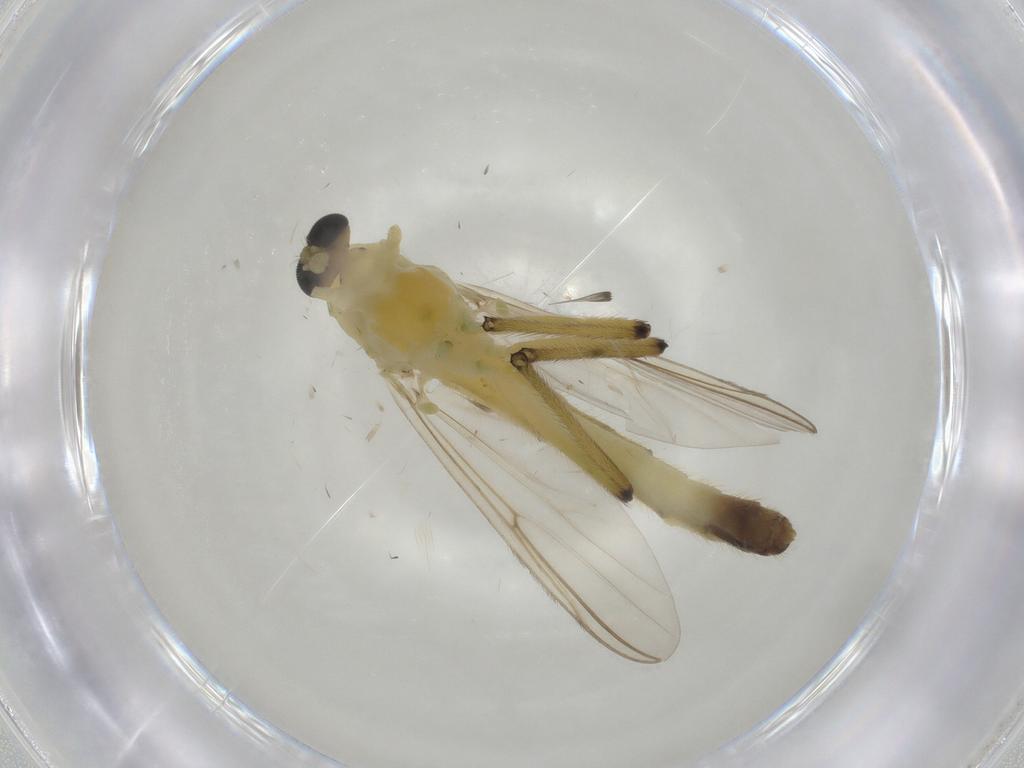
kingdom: Animalia
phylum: Arthropoda
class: Insecta
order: Diptera
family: Chironomidae
